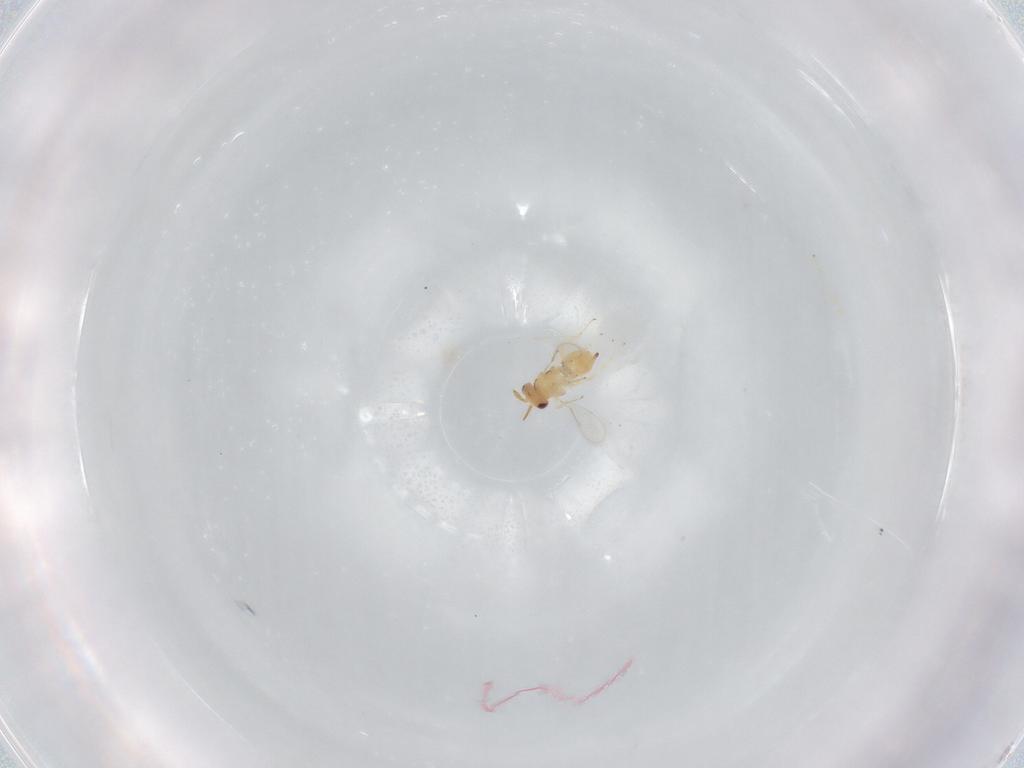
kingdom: Animalia
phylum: Arthropoda
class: Insecta
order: Hymenoptera
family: Aphelinidae
